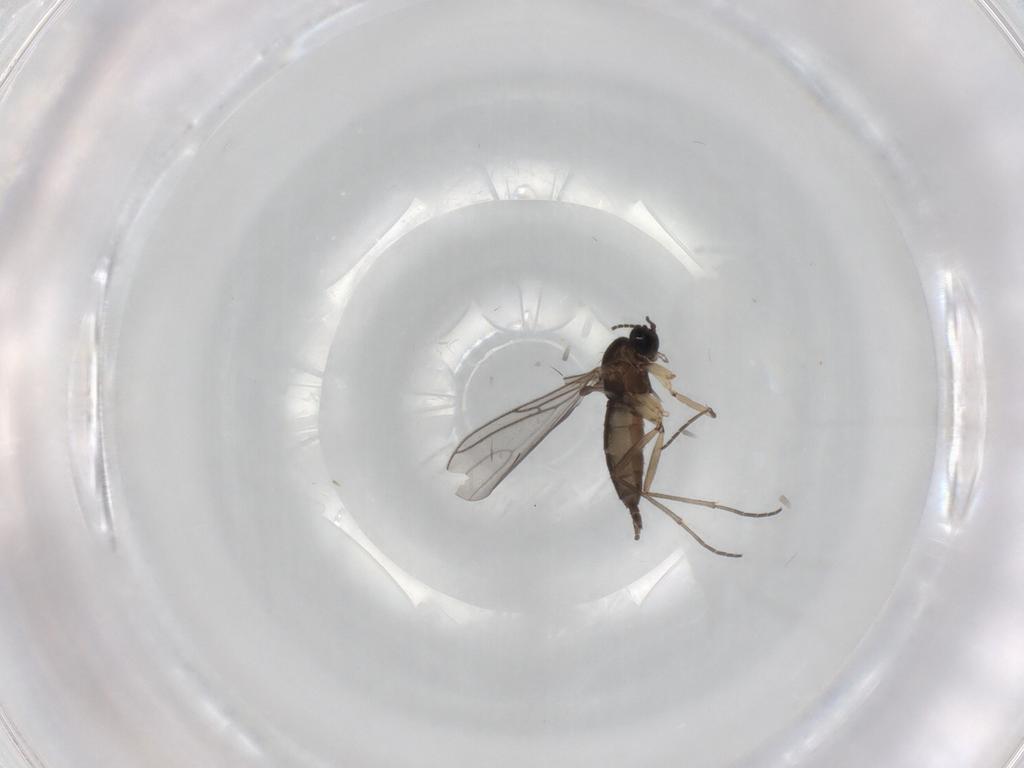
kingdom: Animalia
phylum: Arthropoda
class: Insecta
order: Diptera
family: Sciaridae
